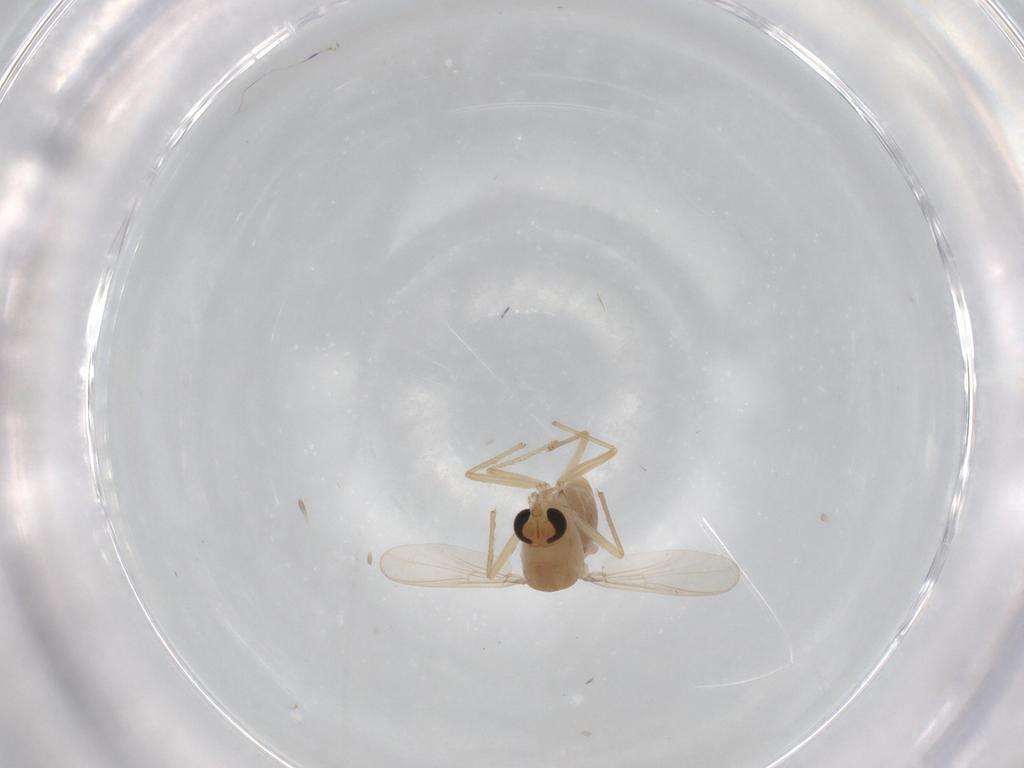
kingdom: Animalia
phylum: Arthropoda
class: Insecta
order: Diptera
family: Chironomidae
